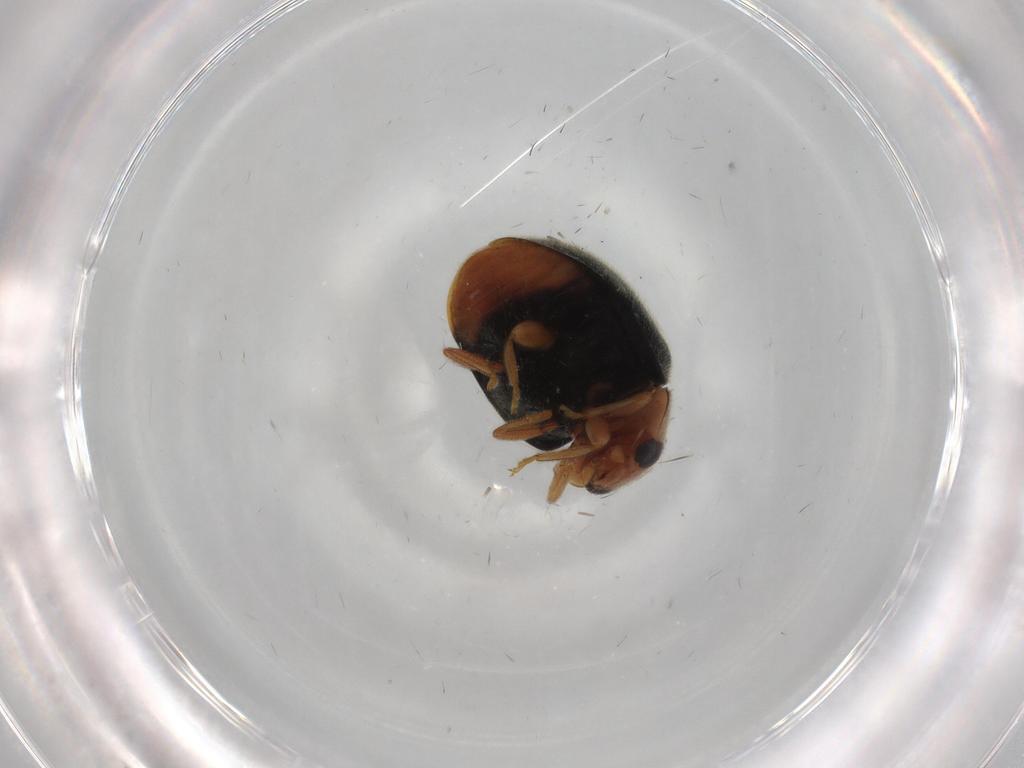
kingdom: Animalia
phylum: Arthropoda
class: Insecta
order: Coleoptera
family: Coccinellidae
